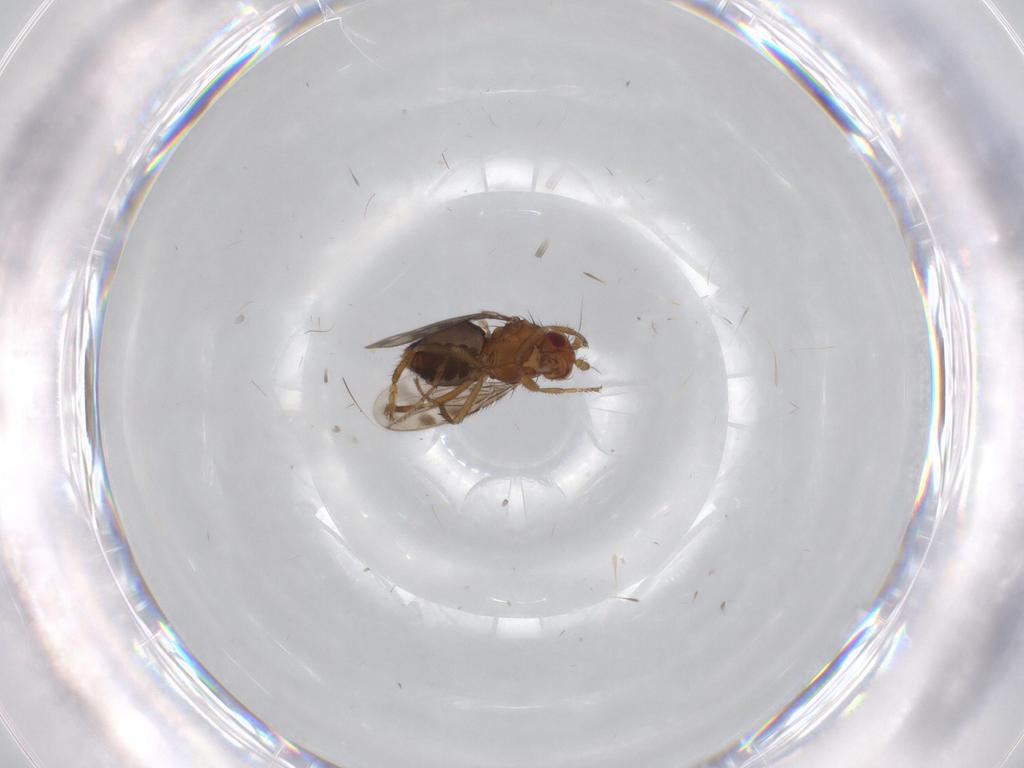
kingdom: Animalia
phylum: Arthropoda
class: Insecta
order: Diptera
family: Sphaeroceridae
